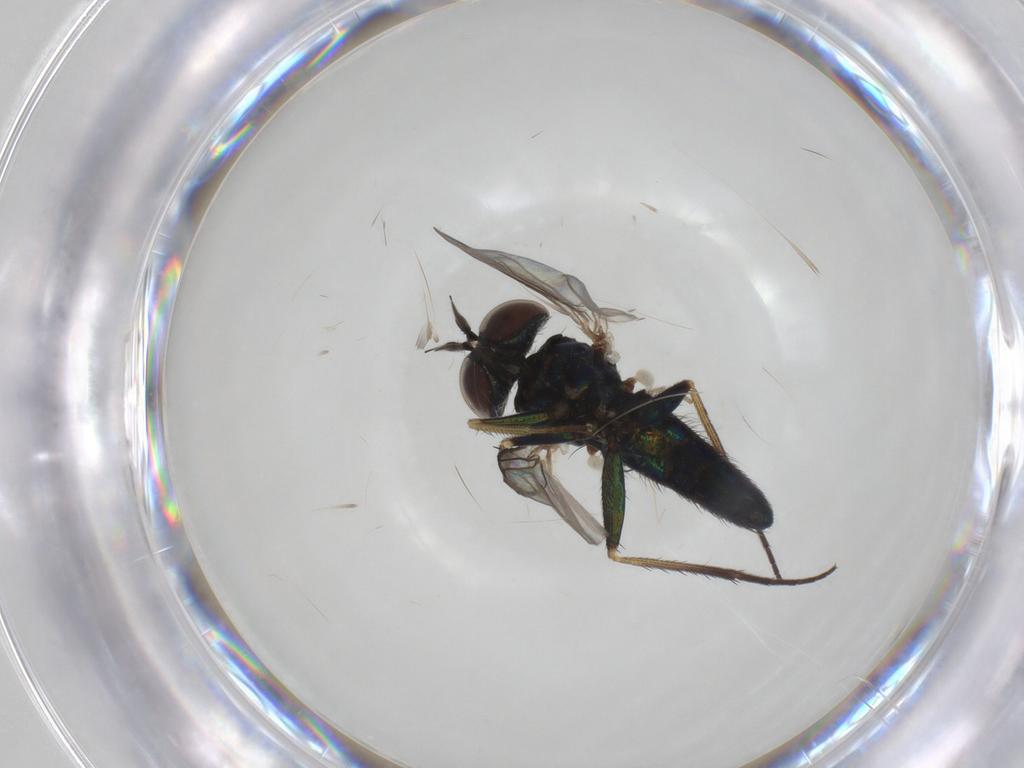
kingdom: Animalia
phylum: Arthropoda
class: Insecta
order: Diptera
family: Dolichopodidae
